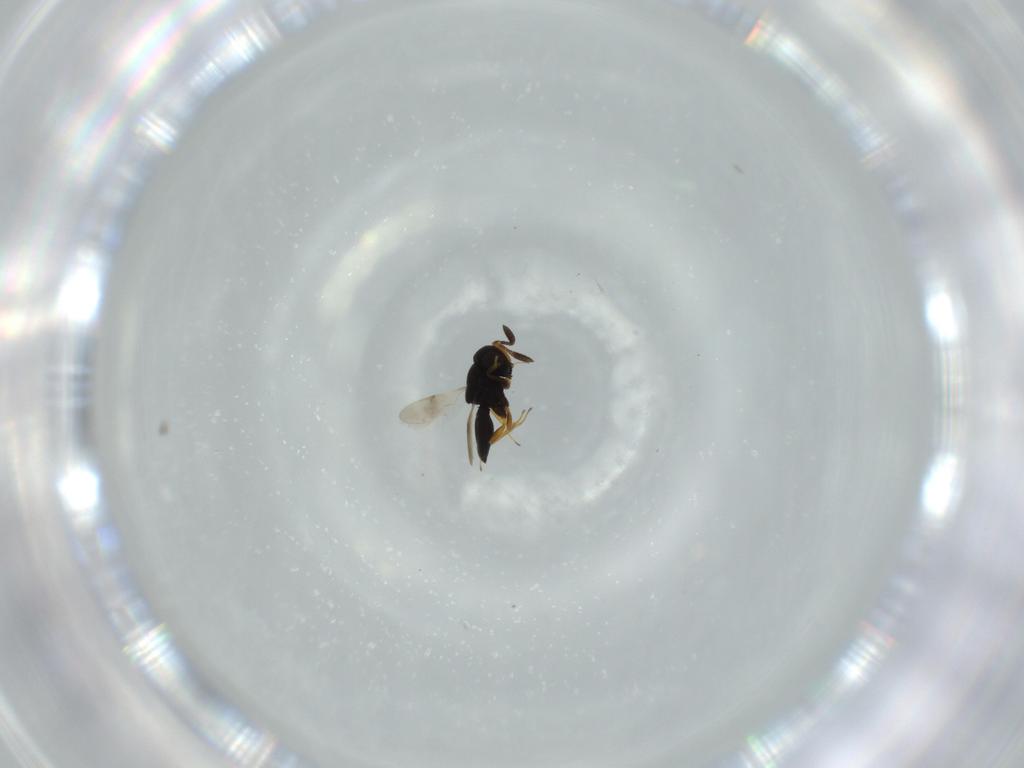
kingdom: Animalia
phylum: Arthropoda
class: Insecta
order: Hymenoptera
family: Scelionidae
